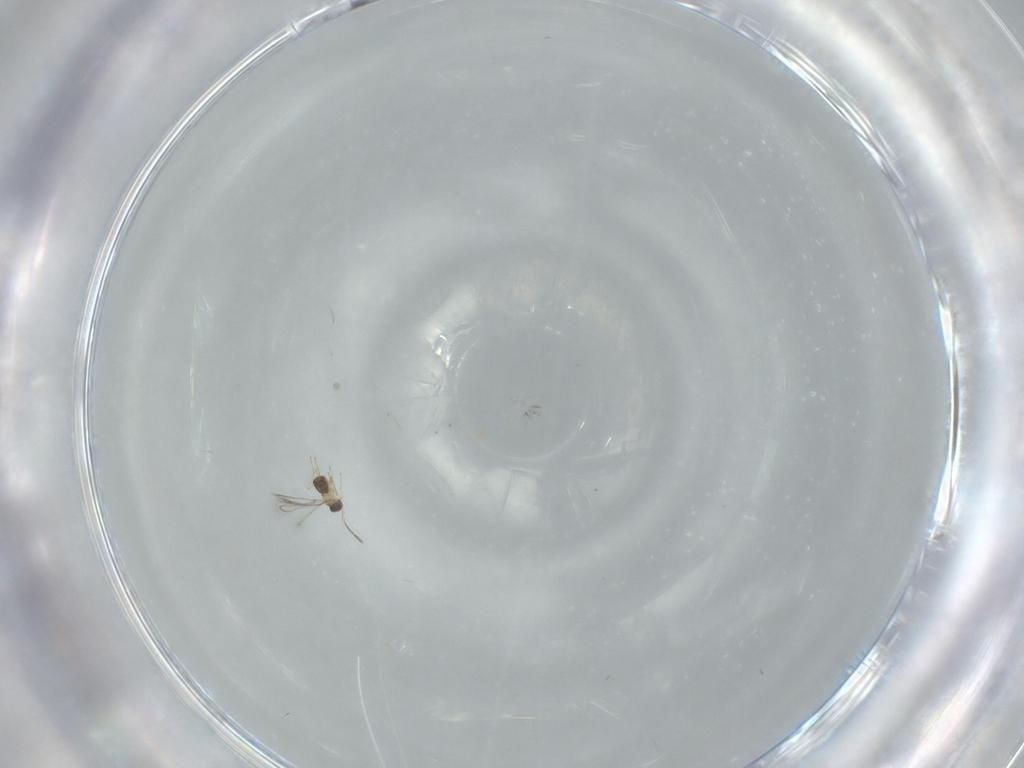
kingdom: Animalia
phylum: Arthropoda
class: Insecta
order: Hymenoptera
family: Mymaridae
